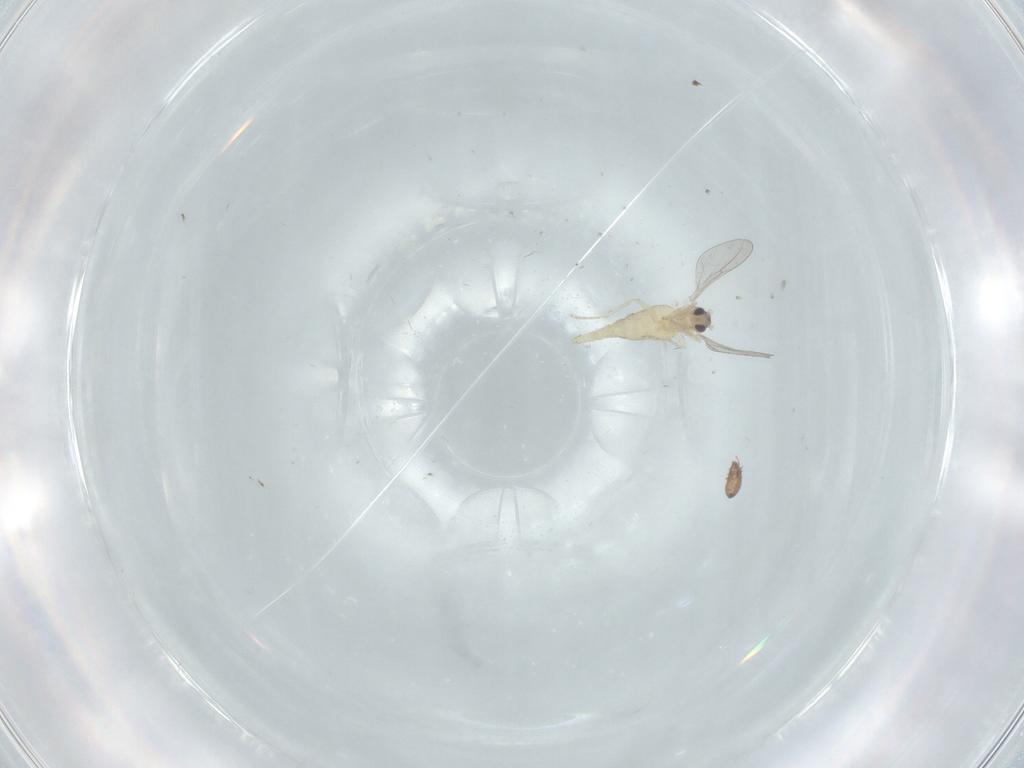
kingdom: Animalia
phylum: Arthropoda
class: Insecta
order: Diptera
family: Cecidomyiidae
